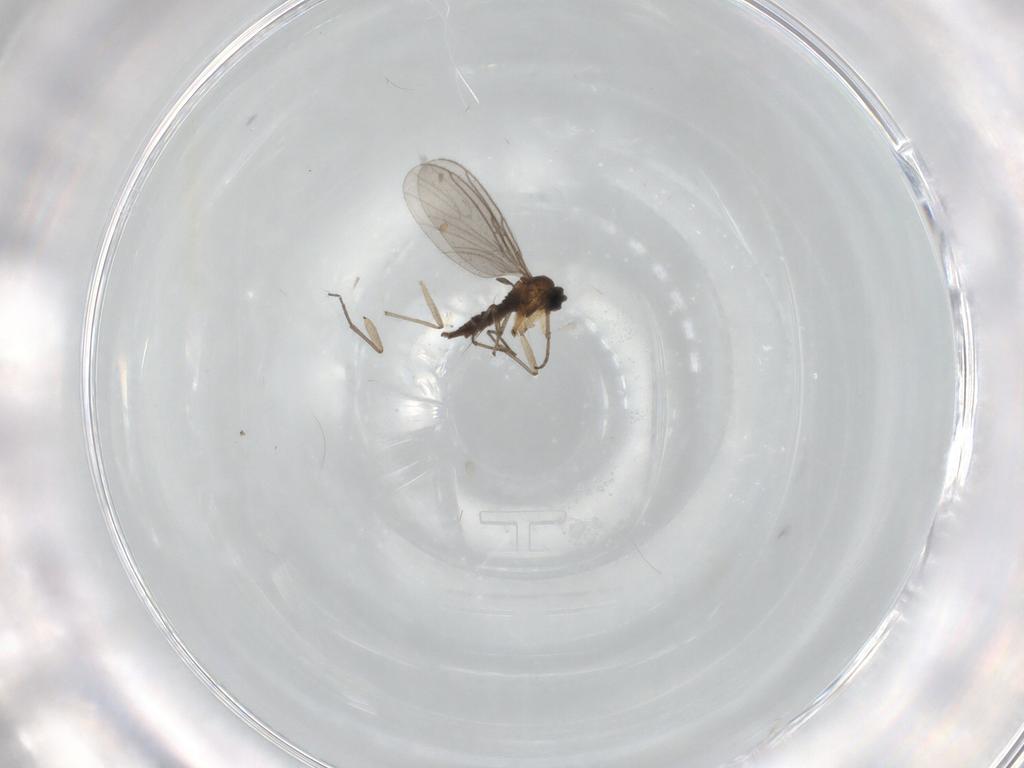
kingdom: Animalia
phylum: Arthropoda
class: Insecta
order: Diptera
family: Chironomidae
